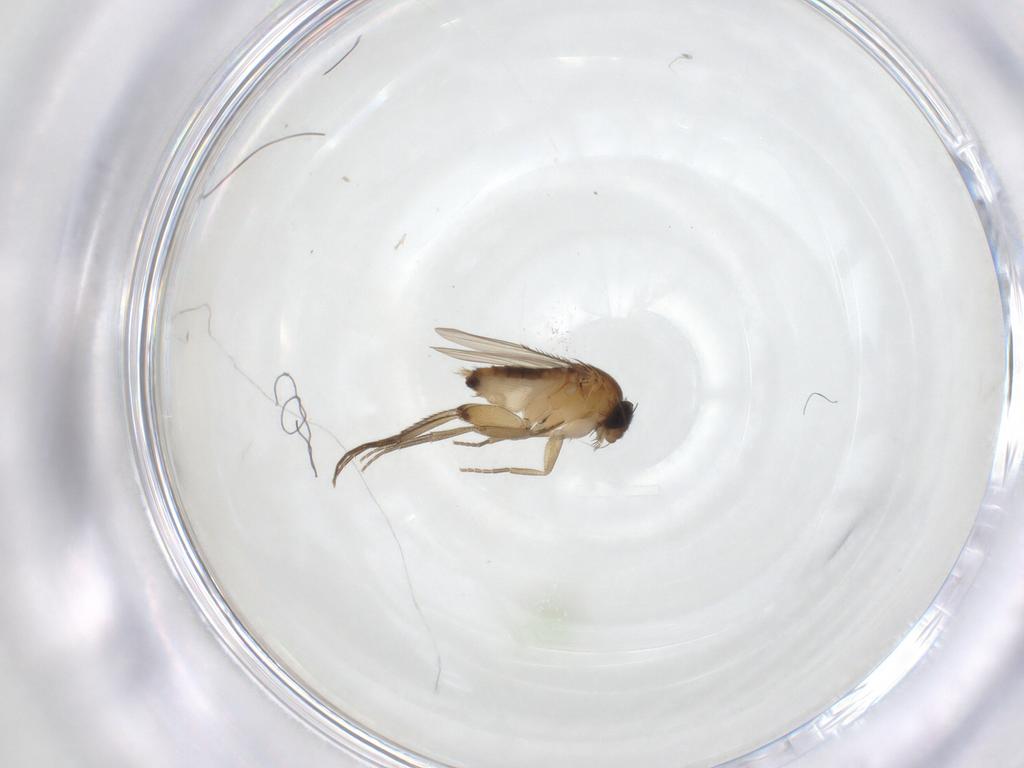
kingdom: Animalia
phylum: Arthropoda
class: Insecta
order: Diptera
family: Phoridae
